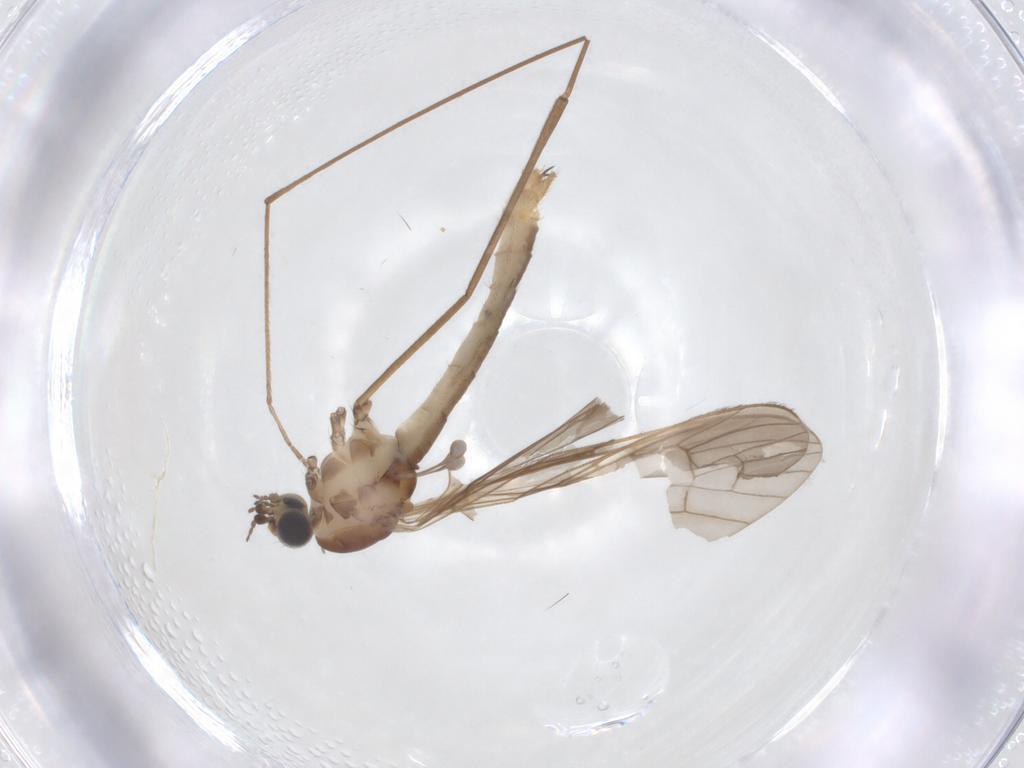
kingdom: Animalia
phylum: Arthropoda
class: Insecta
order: Diptera
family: Limoniidae
